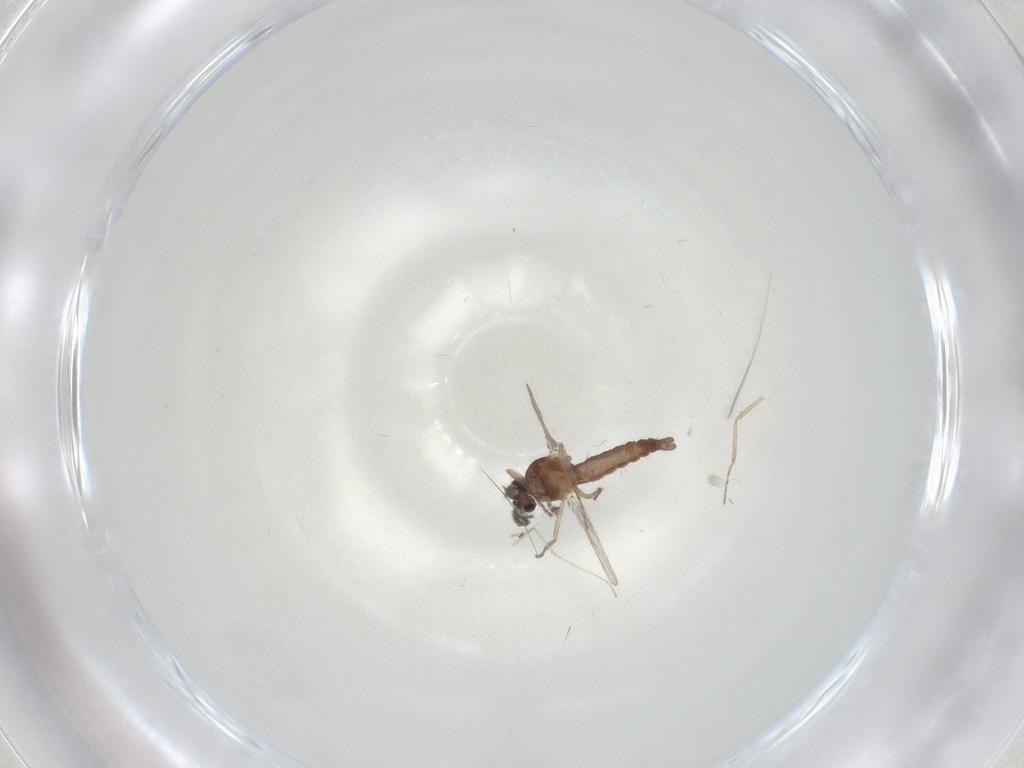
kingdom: Animalia
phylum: Arthropoda
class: Insecta
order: Diptera
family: Ceratopogonidae
